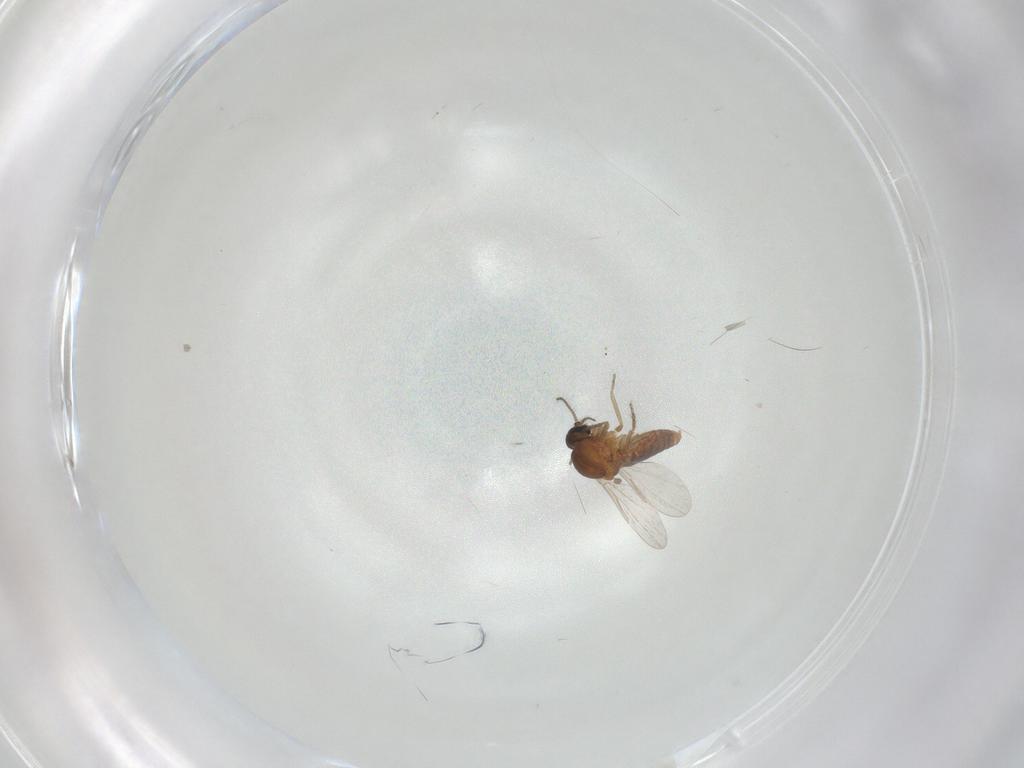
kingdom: Animalia
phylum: Arthropoda
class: Insecta
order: Diptera
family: Ceratopogonidae
